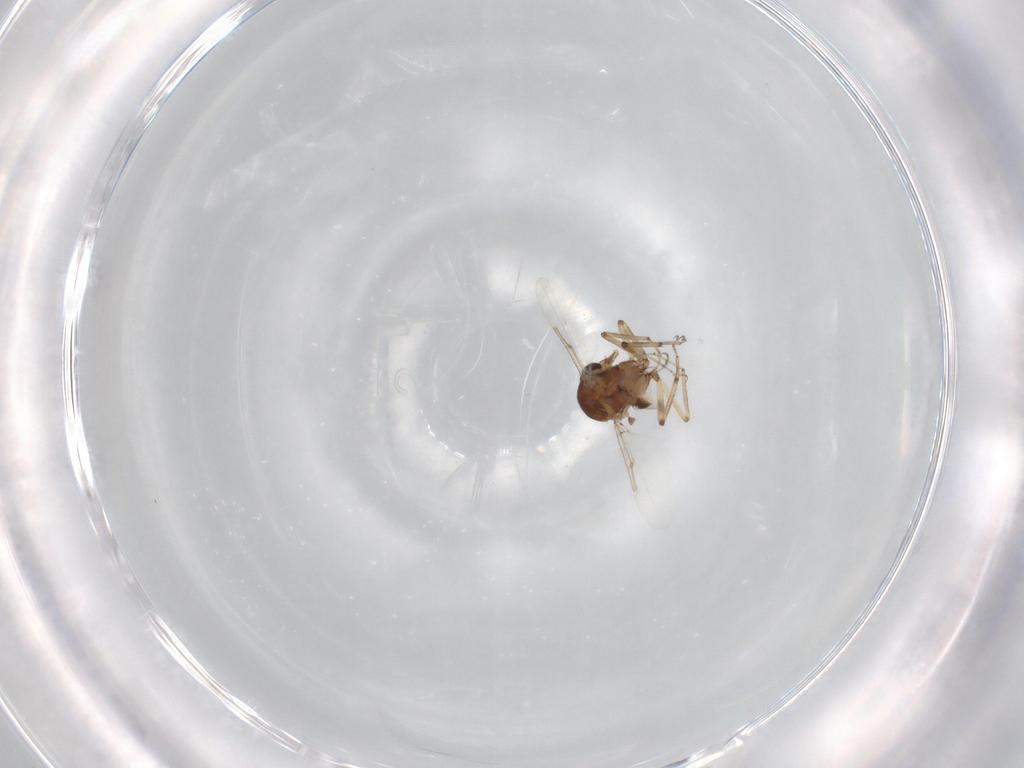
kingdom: Animalia
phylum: Arthropoda
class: Insecta
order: Diptera
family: Ceratopogonidae
